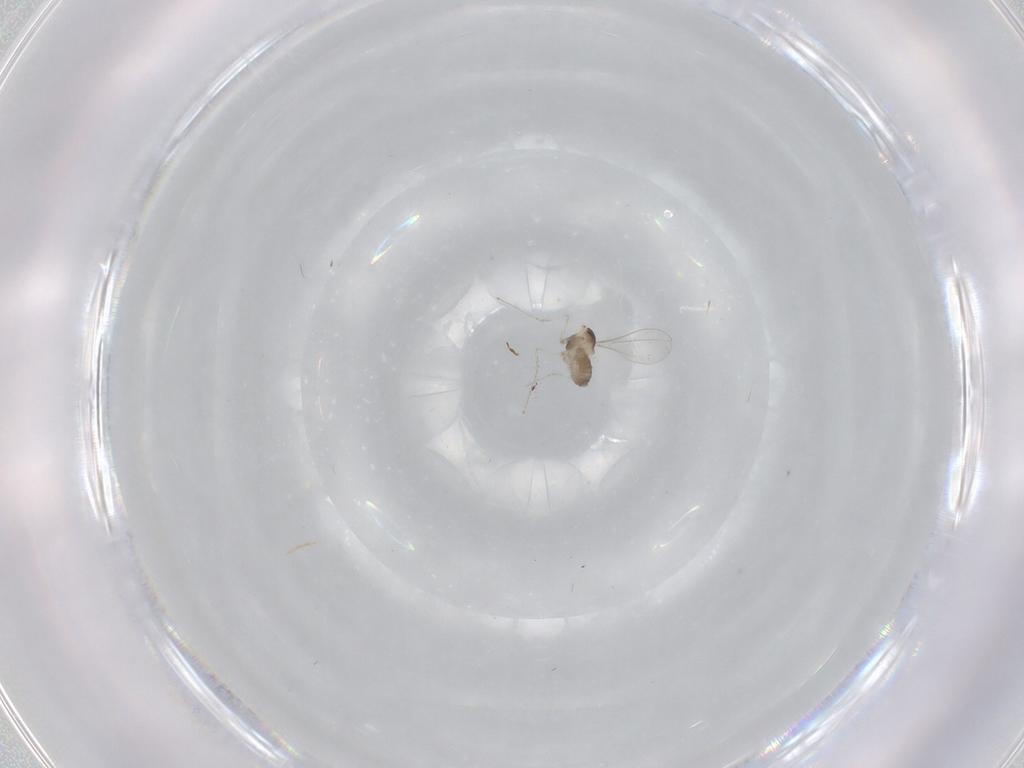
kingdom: Animalia
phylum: Arthropoda
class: Insecta
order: Diptera
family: Cecidomyiidae
